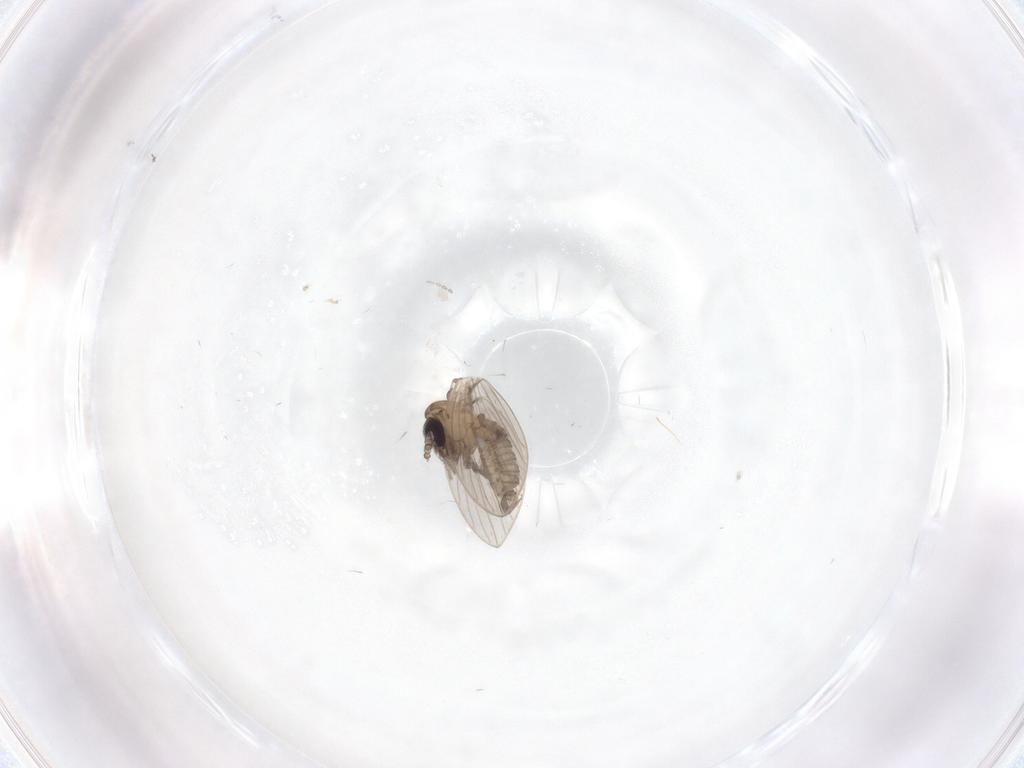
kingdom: Animalia
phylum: Arthropoda
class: Insecta
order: Diptera
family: Psychodidae
